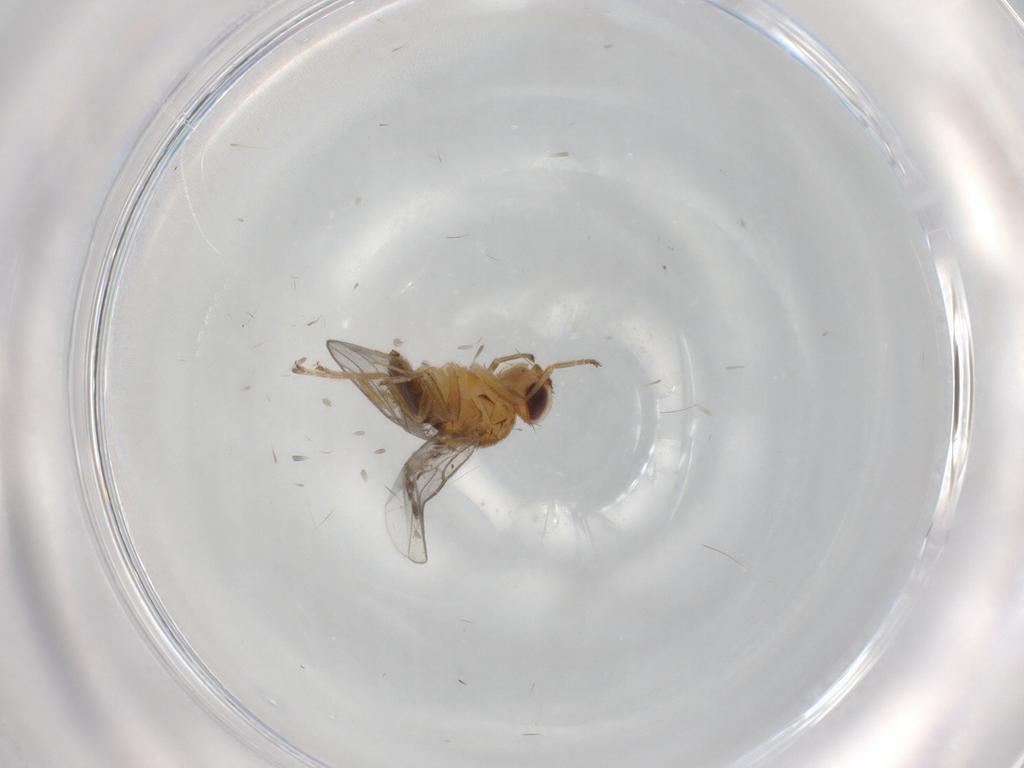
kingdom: Animalia
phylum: Arthropoda
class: Insecta
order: Diptera
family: Chloropidae
